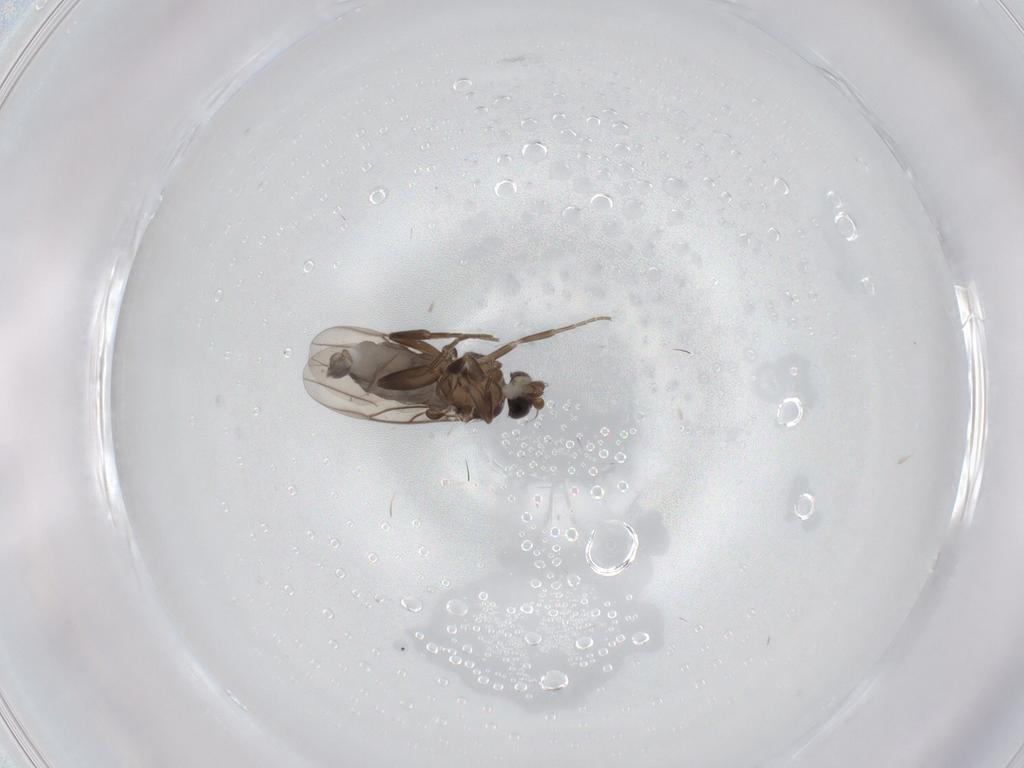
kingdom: Animalia
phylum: Arthropoda
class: Insecta
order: Diptera
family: Phoridae
